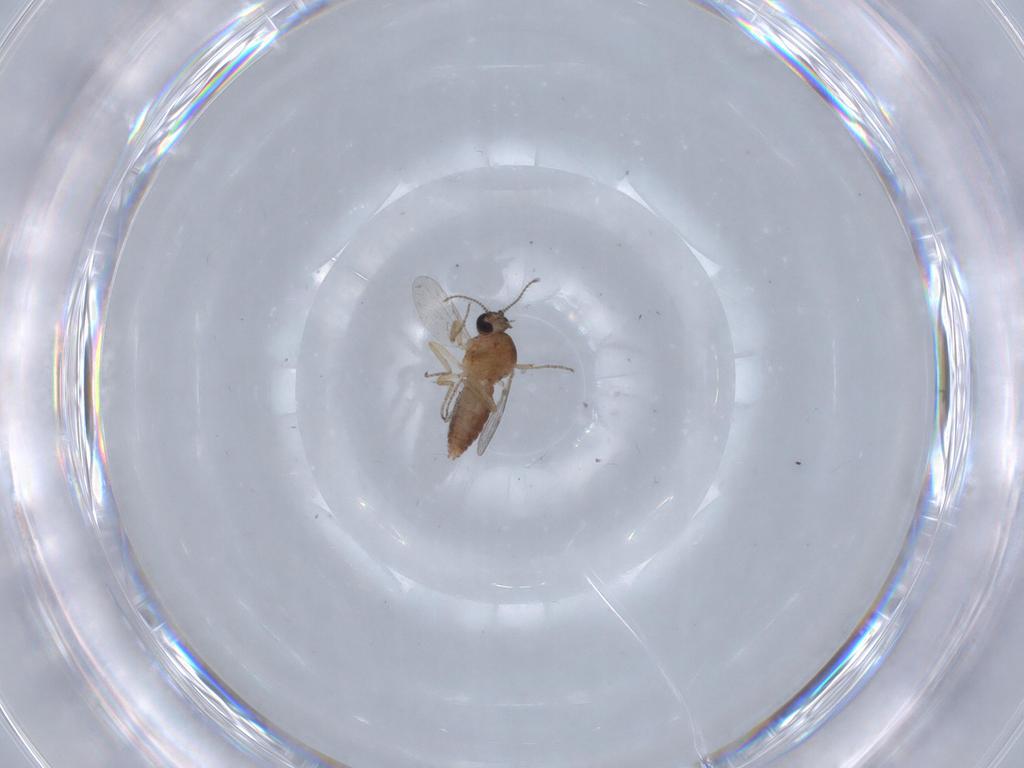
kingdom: Animalia
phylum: Arthropoda
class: Insecta
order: Diptera
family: Ceratopogonidae
